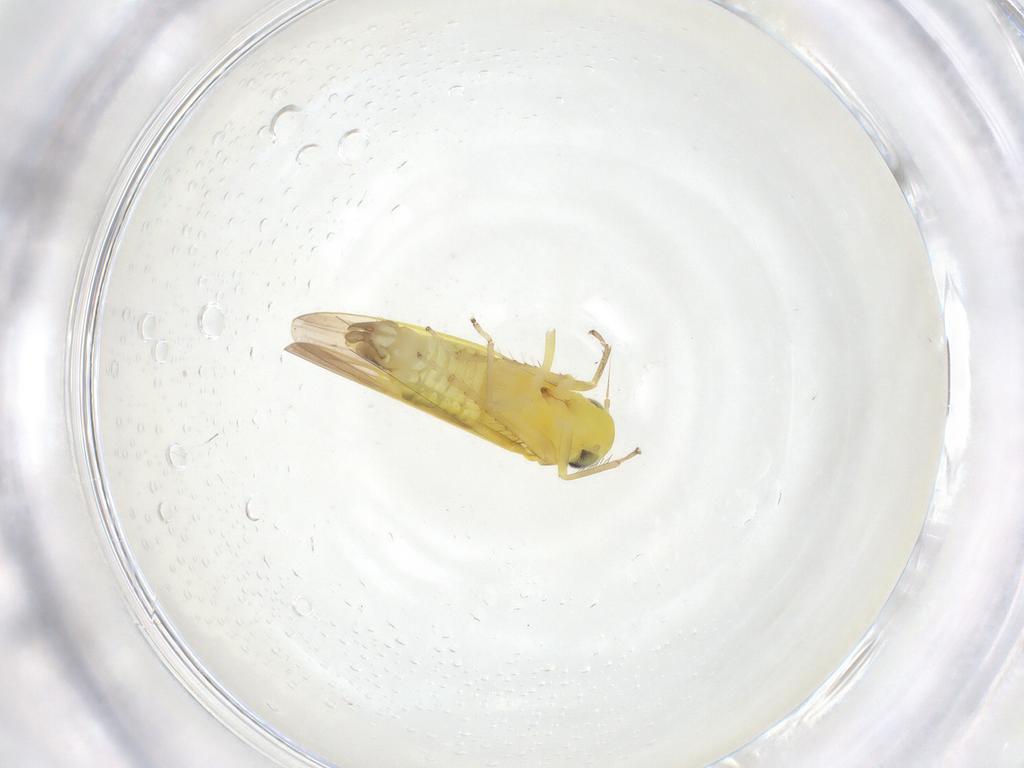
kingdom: Animalia
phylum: Arthropoda
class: Insecta
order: Hemiptera
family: Cicadellidae
